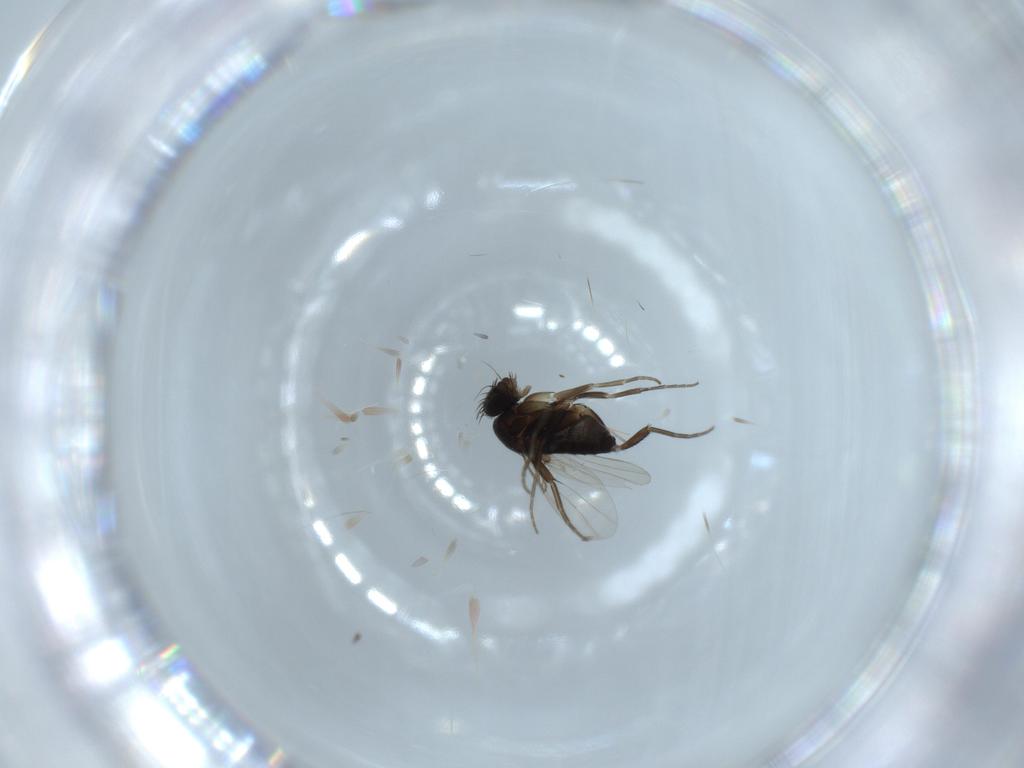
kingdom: Animalia
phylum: Arthropoda
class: Insecta
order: Diptera
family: Phoridae
